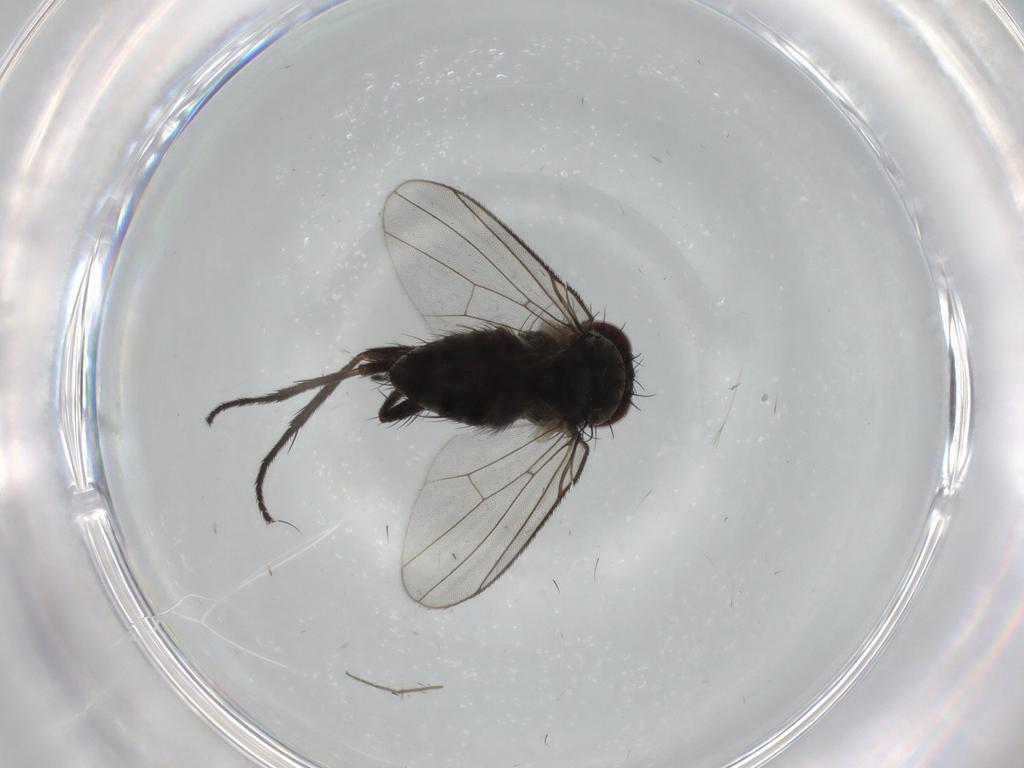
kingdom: Animalia
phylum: Arthropoda
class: Insecta
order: Diptera
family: Muscidae
